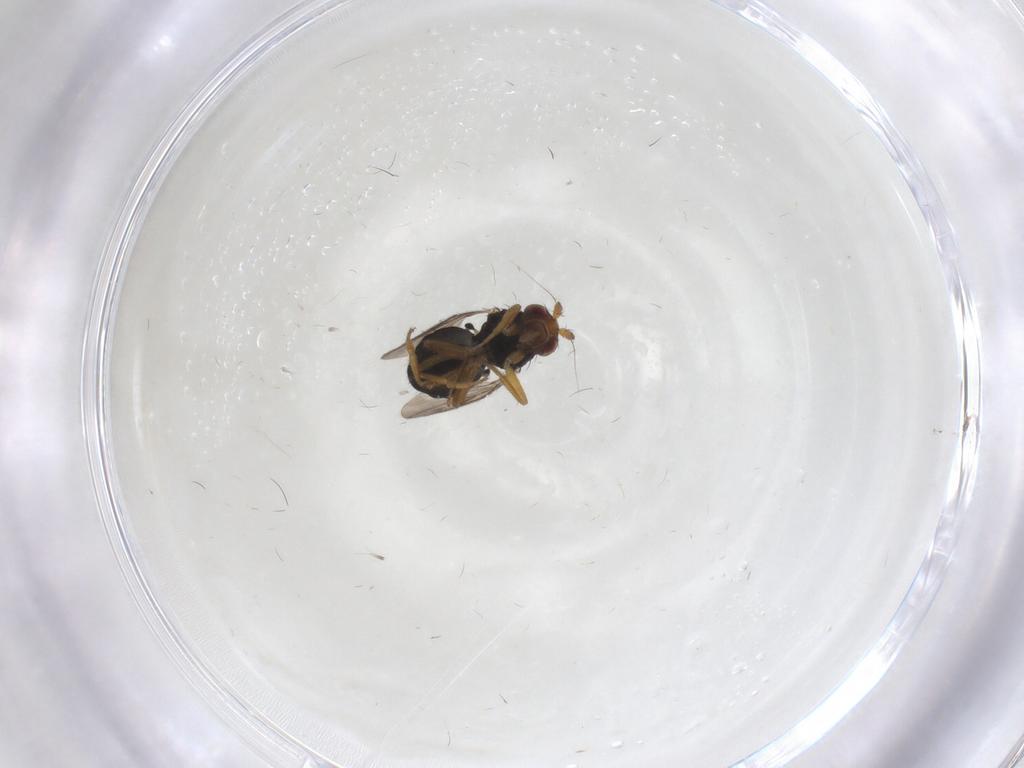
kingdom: Animalia
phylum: Arthropoda
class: Insecta
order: Diptera
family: Sphaeroceridae
